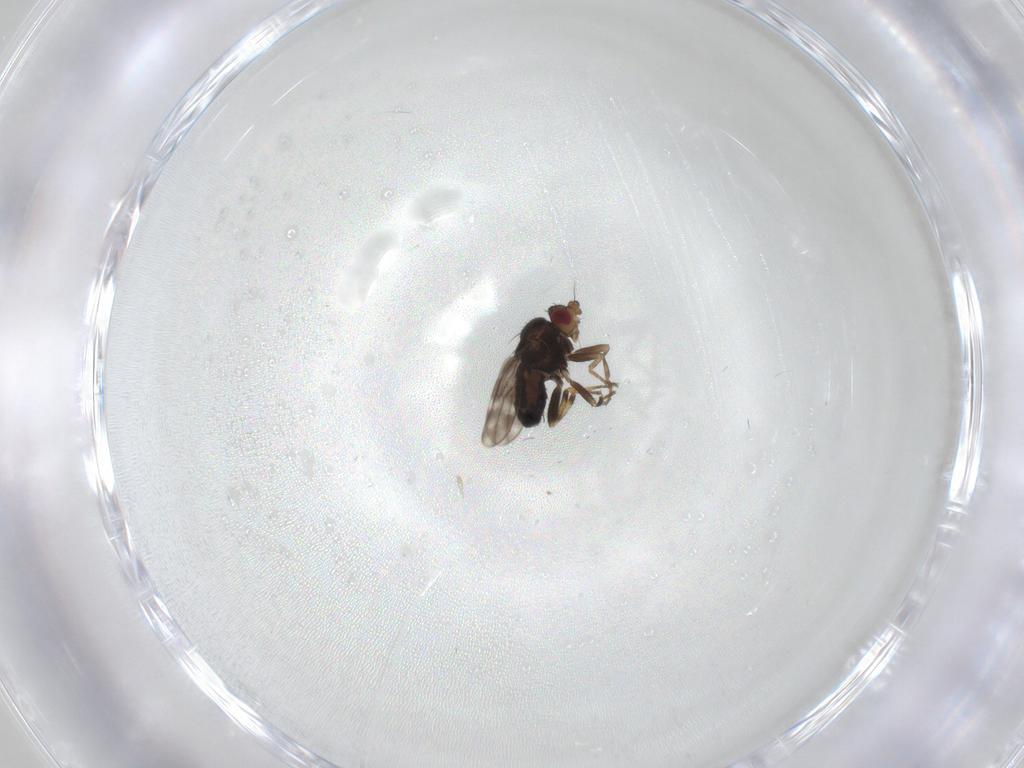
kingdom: Animalia
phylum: Arthropoda
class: Insecta
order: Diptera
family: Sphaeroceridae
